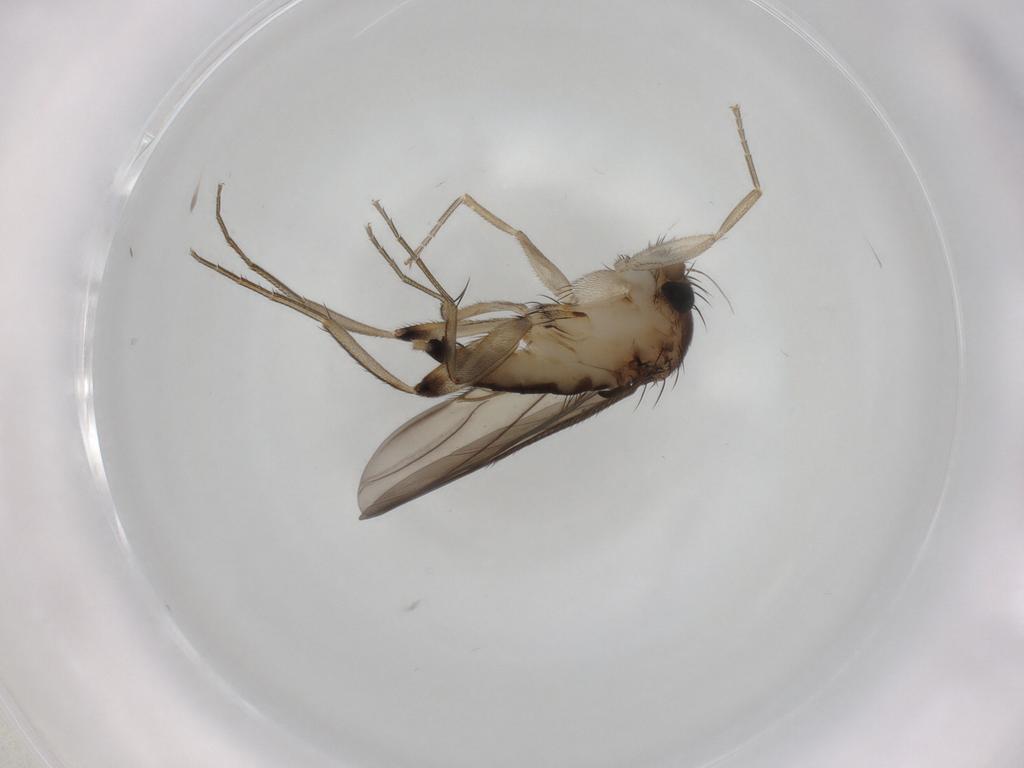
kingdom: Animalia
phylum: Arthropoda
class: Insecta
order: Diptera
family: Phoridae
